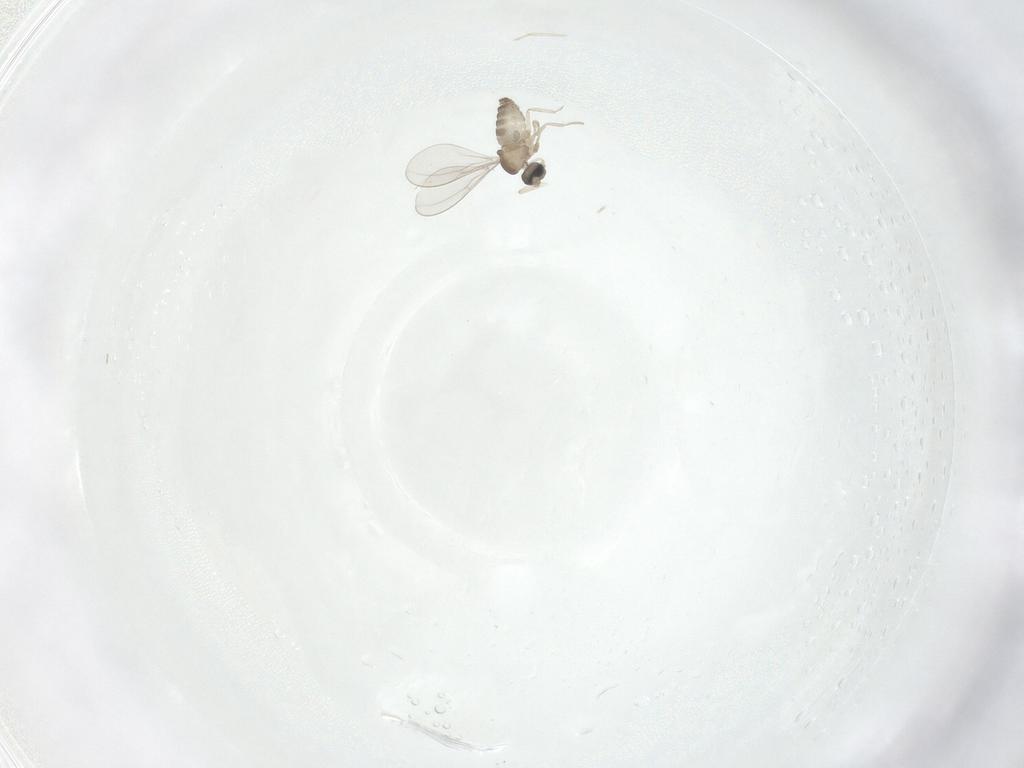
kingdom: Animalia
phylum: Arthropoda
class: Insecta
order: Diptera
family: Cecidomyiidae
